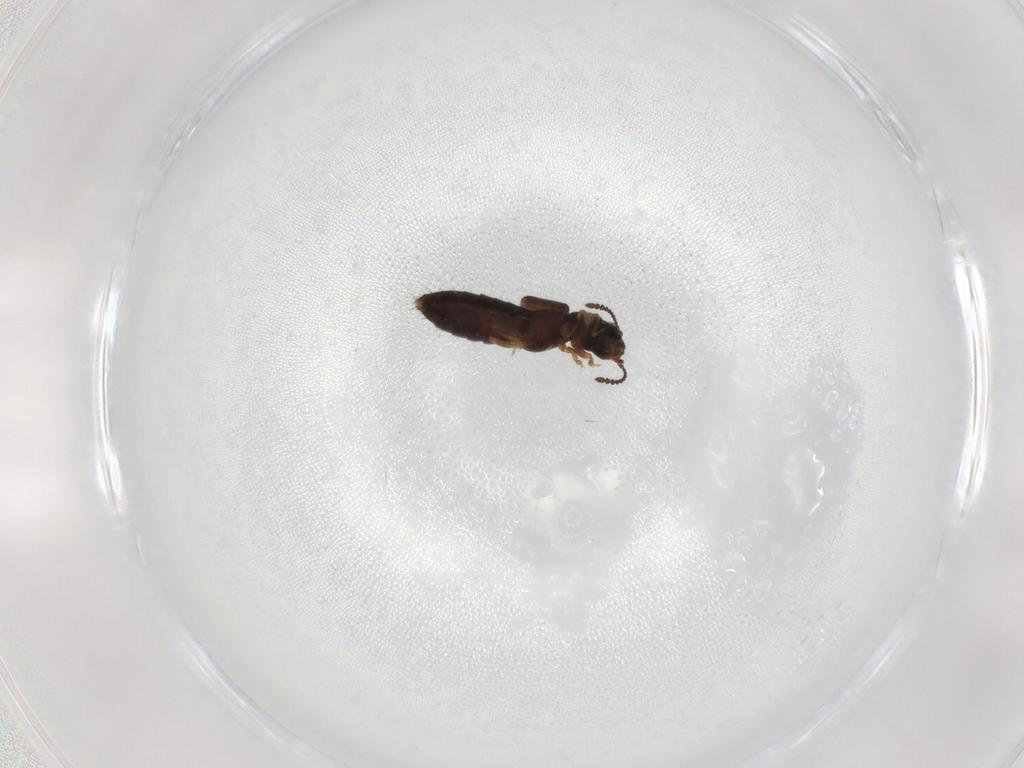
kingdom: Animalia
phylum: Arthropoda
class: Insecta
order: Coleoptera
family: Staphylinidae
